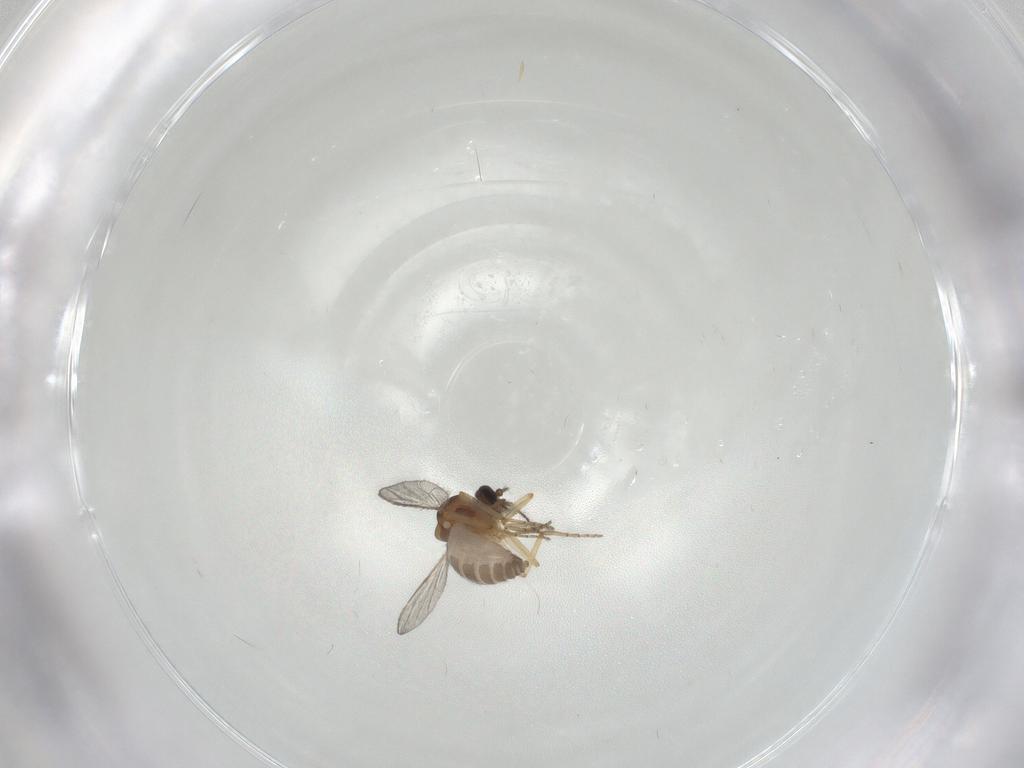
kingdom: Animalia
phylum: Arthropoda
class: Insecta
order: Diptera
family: Ceratopogonidae
